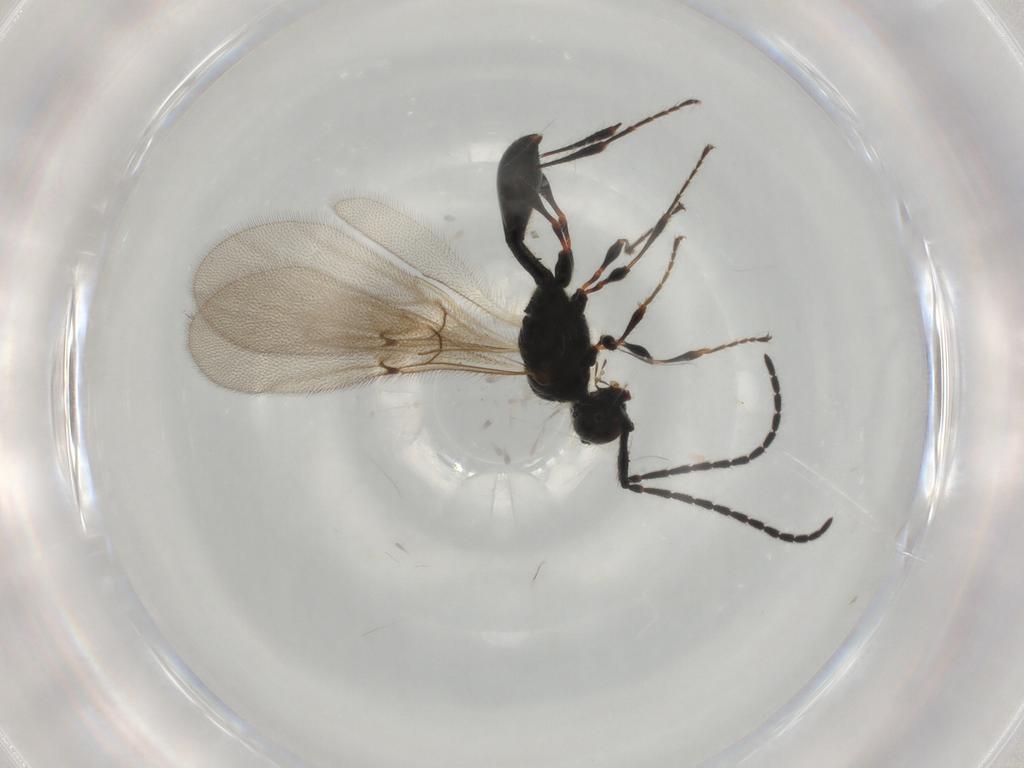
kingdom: Animalia
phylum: Arthropoda
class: Insecta
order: Hymenoptera
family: Diapriidae
